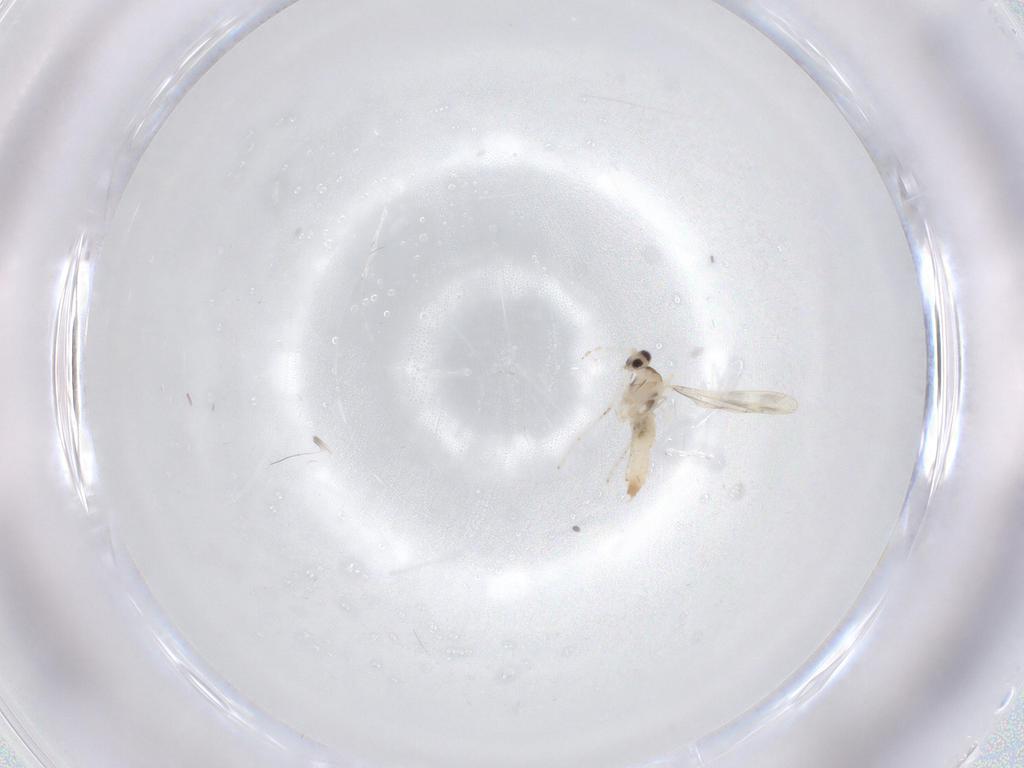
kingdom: Animalia
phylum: Arthropoda
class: Insecta
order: Diptera
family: Cecidomyiidae
